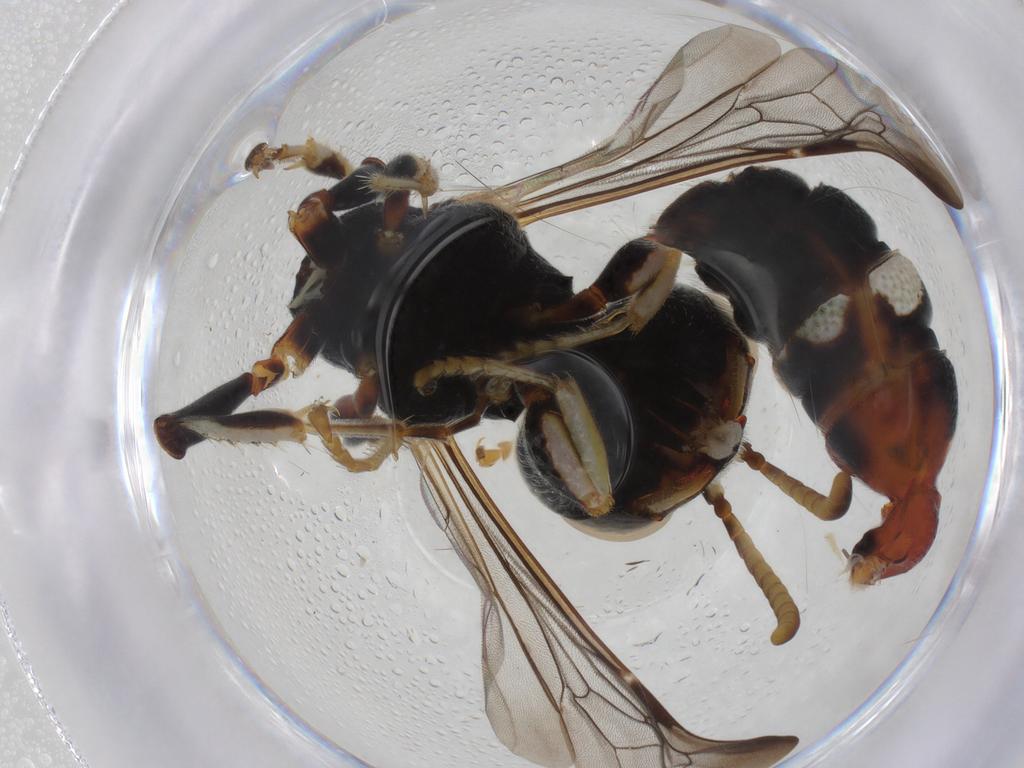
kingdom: Animalia
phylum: Arthropoda
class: Insecta
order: Hymenoptera
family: Philanthidae
